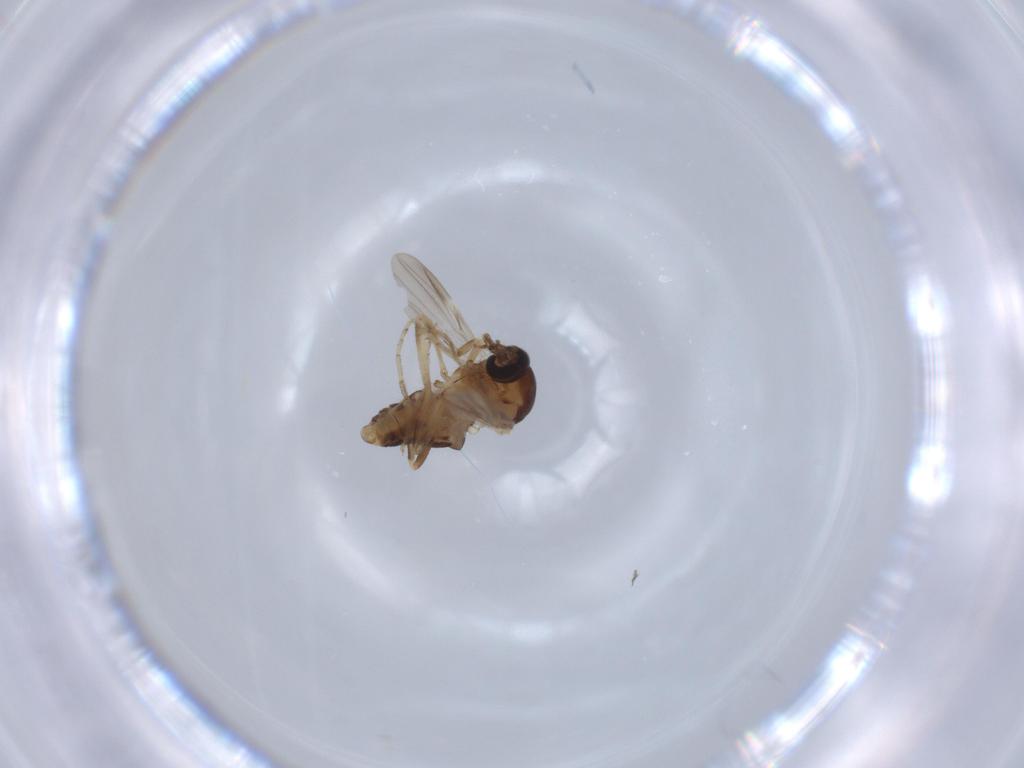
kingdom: Animalia
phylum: Arthropoda
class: Insecta
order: Diptera
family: Ceratopogonidae
